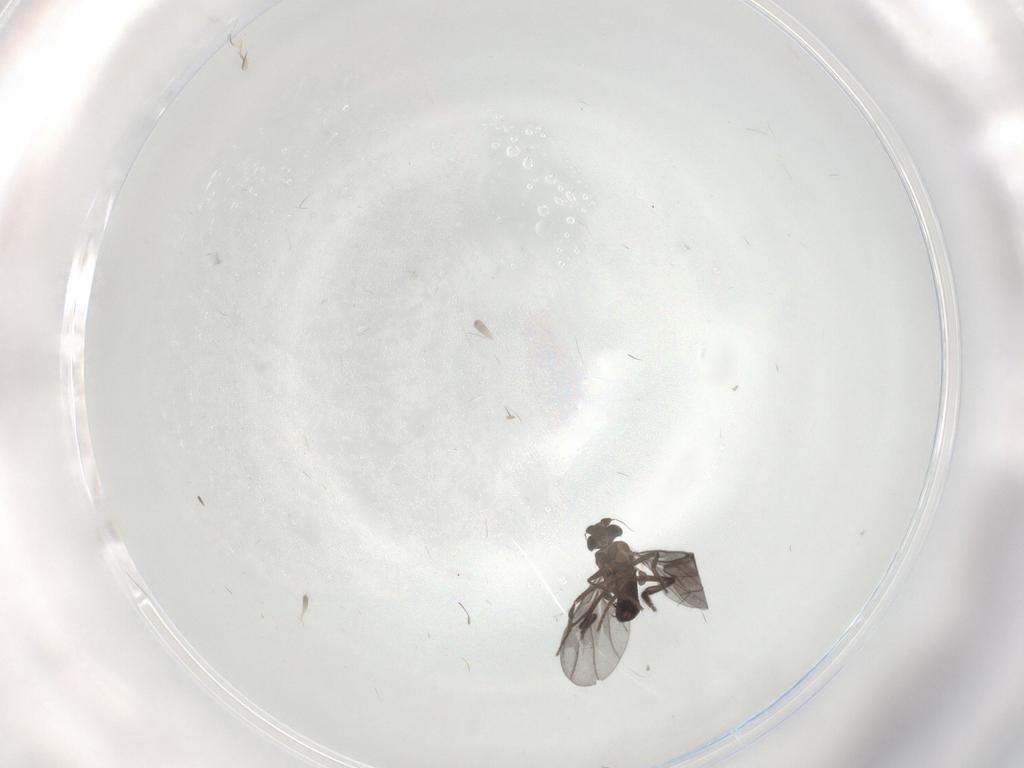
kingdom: Animalia
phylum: Arthropoda
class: Insecta
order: Diptera
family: Phoridae
